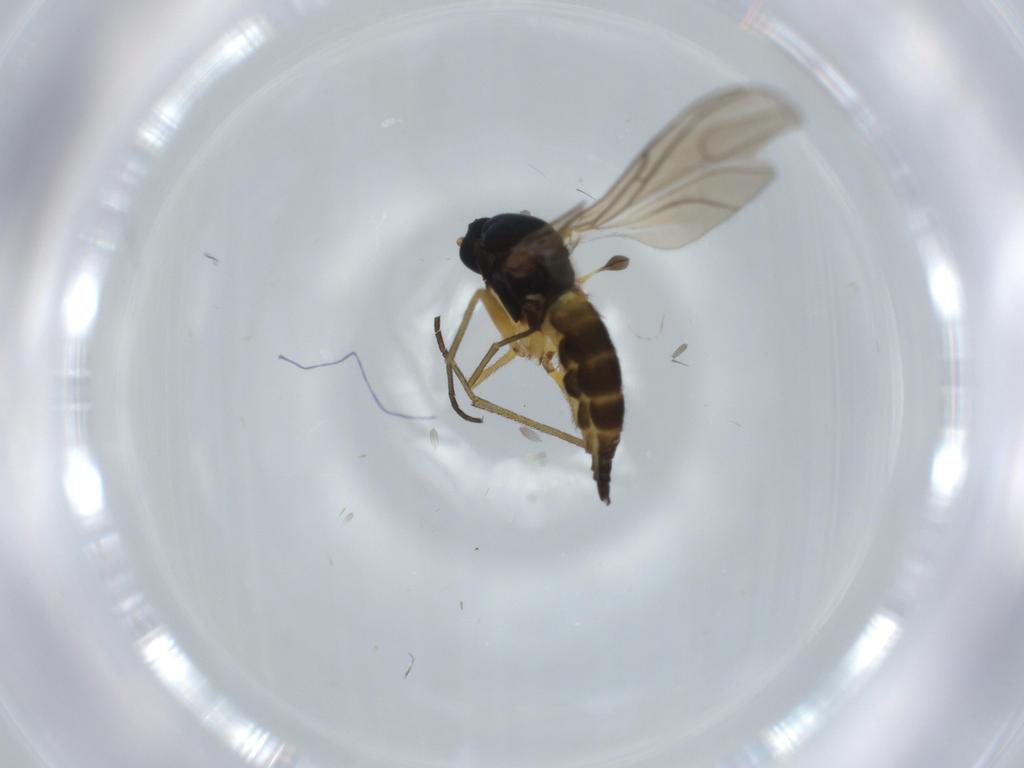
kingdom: Animalia
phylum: Arthropoda
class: Insecta
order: Diptera
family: Sciaridae
